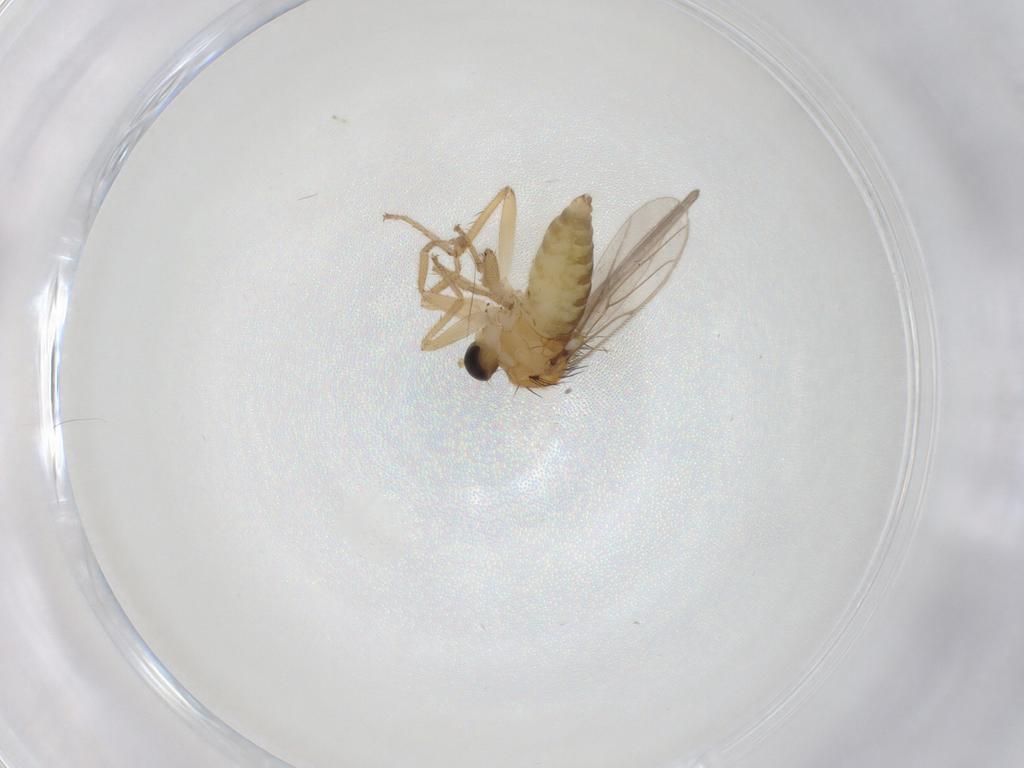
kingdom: Animalia
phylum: Arthropoda
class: Insecta
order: Diptera
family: Hybotidae
